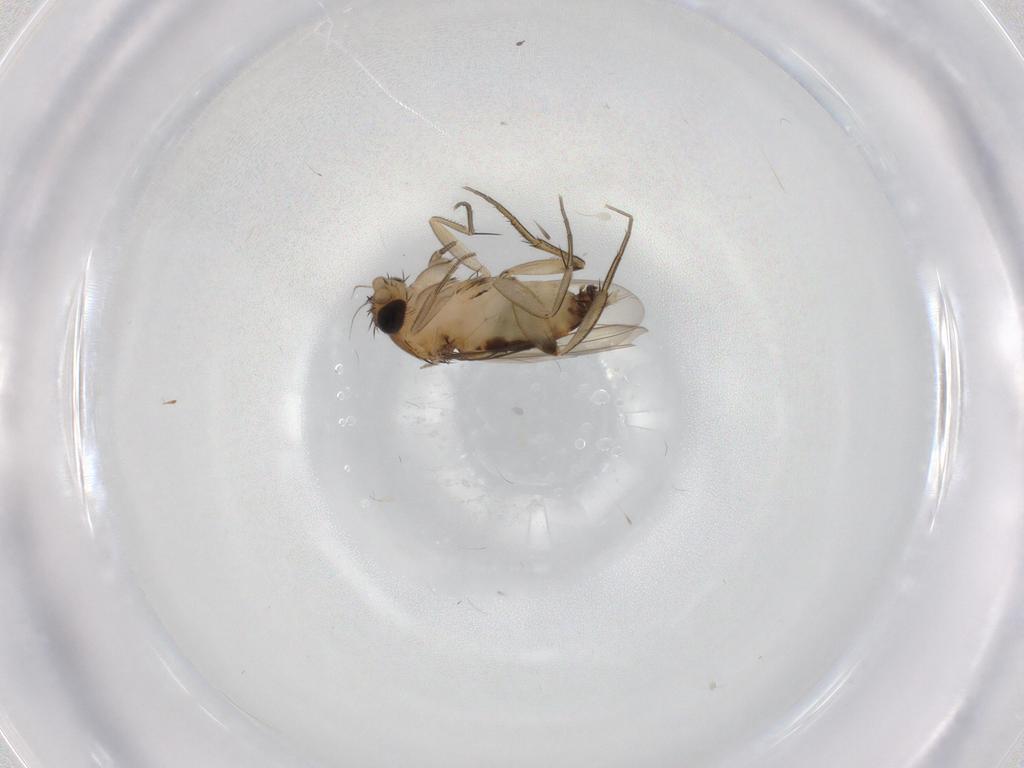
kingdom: Animalia
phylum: Arthropoda
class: Insecta
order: Diptera
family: Phoridae
